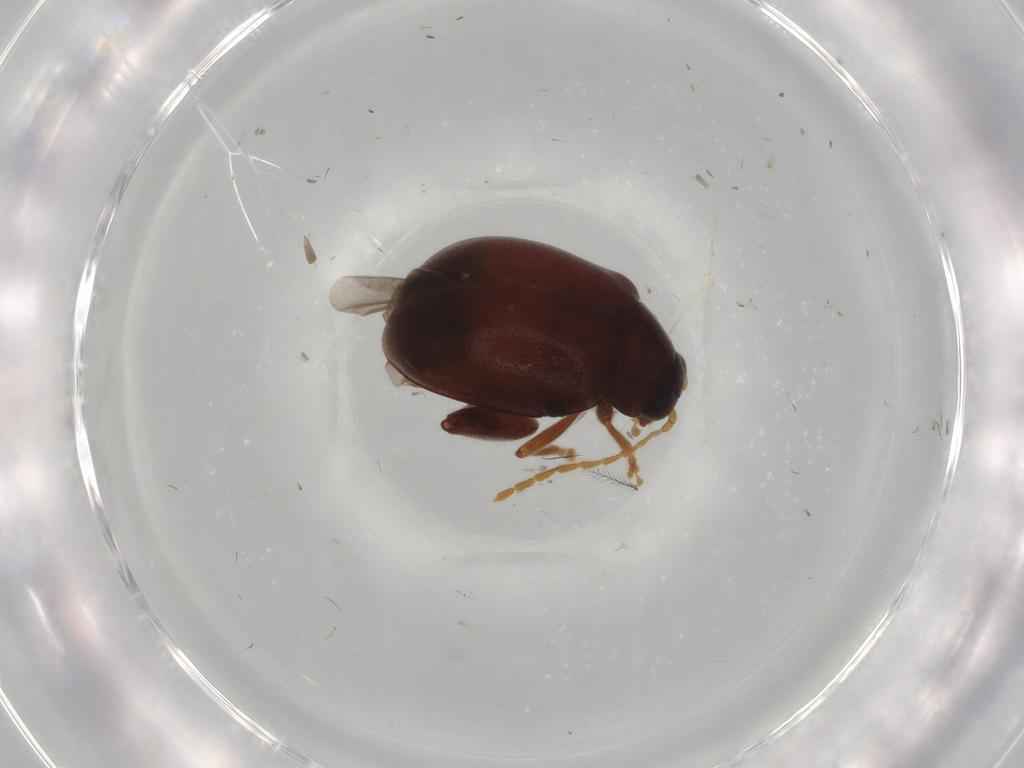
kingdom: Animalia
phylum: Arthropoda
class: Insecta
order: Coleoptera
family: Chrysomelidae
